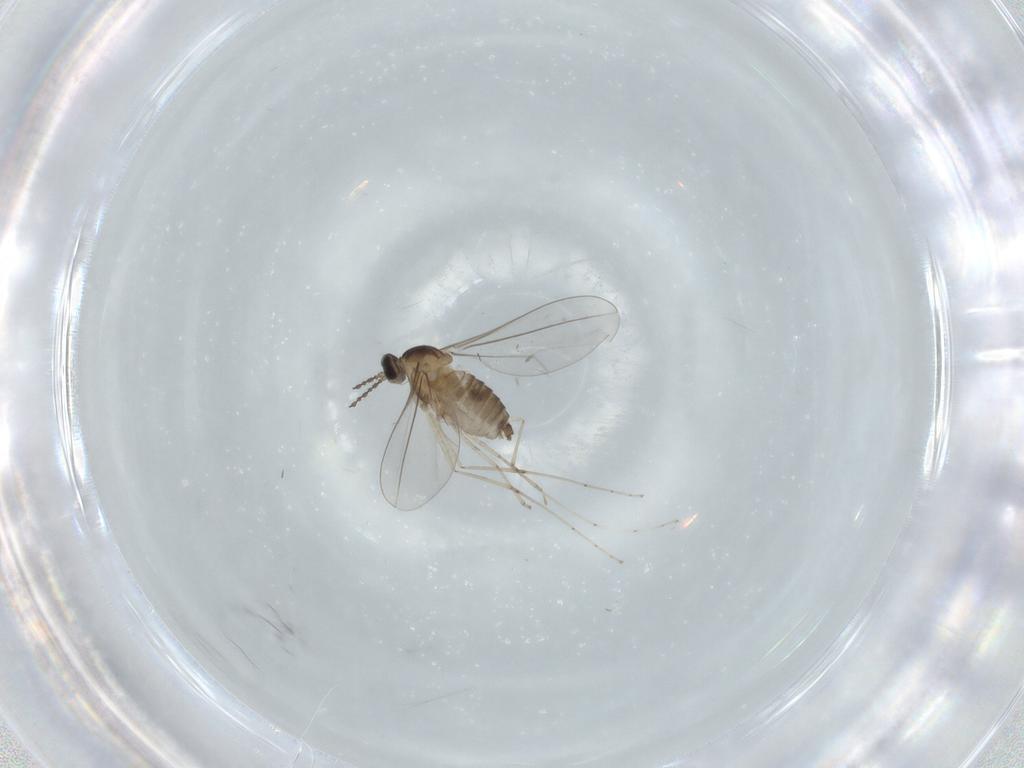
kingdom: Animalia
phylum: Arthropoda
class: Insecta
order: Diptera
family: Cecidomyiidae
